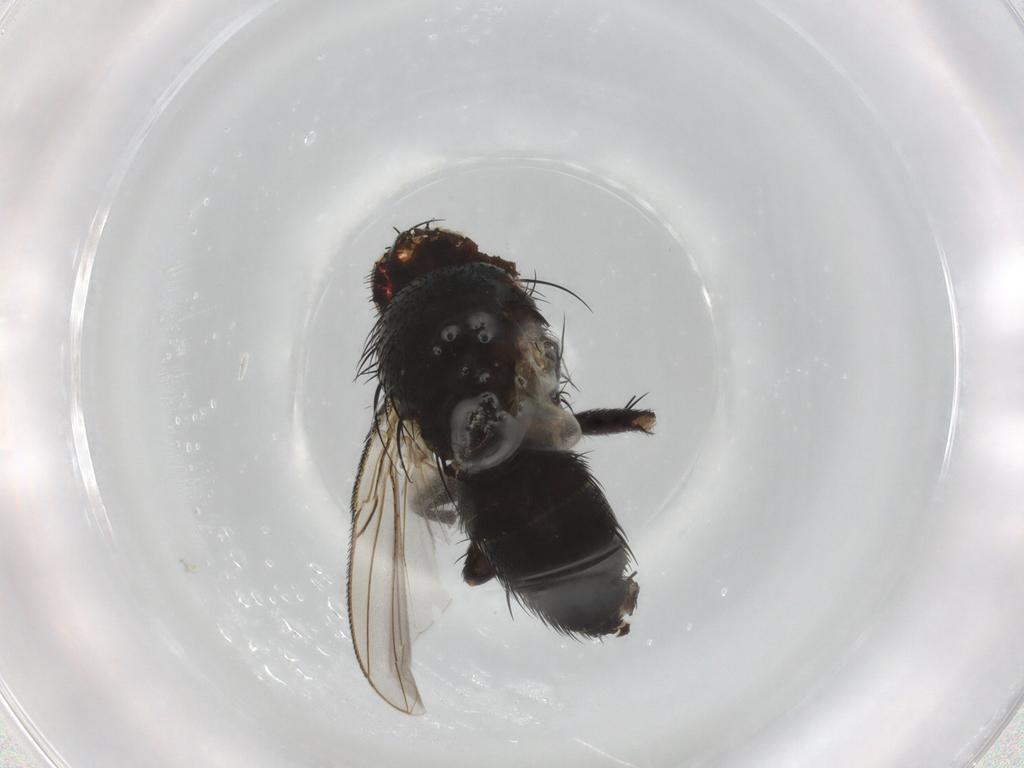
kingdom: Animalia
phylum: Arthropoda
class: Insecta
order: Diptera
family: Tachinidae
